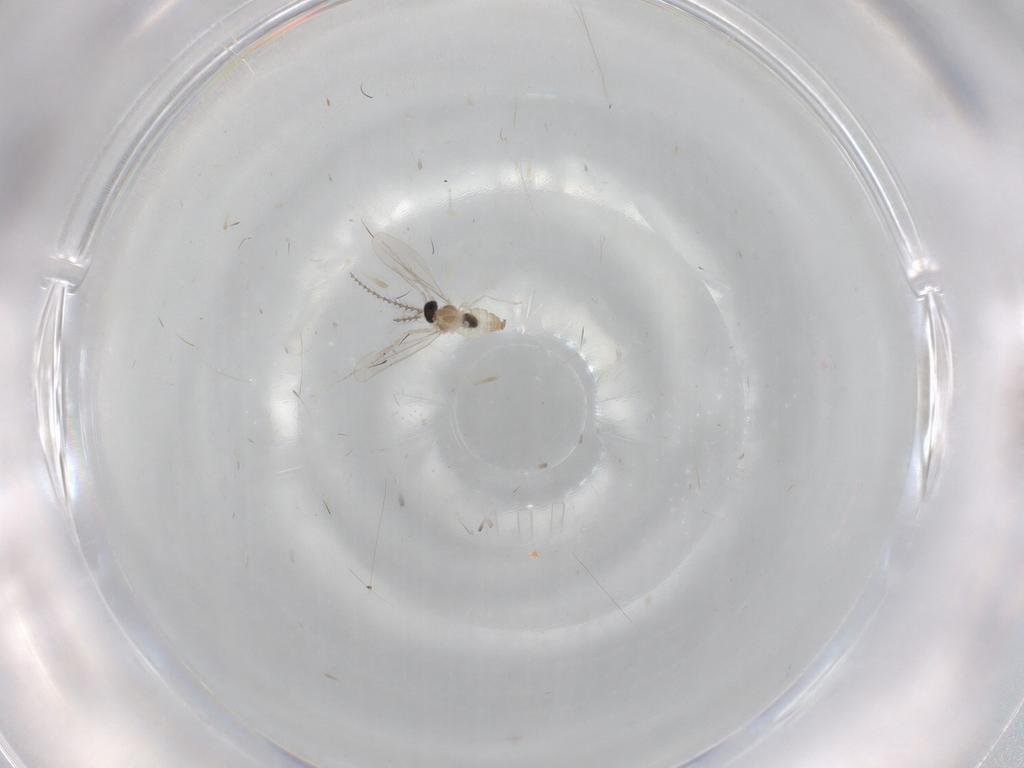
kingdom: Animalia
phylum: Arthropoda
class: Insecta
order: Diptera
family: Cecidomyiidae
